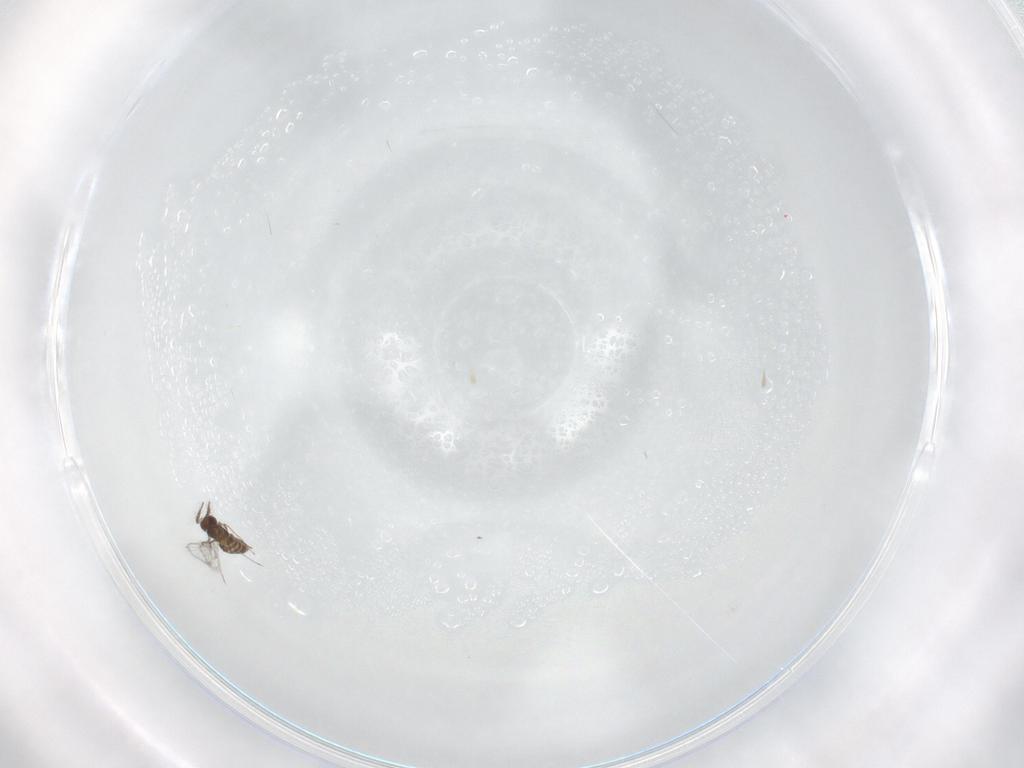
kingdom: Animalia
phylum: Arthropoda
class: Insecta
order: Hymenoptera
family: Trichogrammatidae
